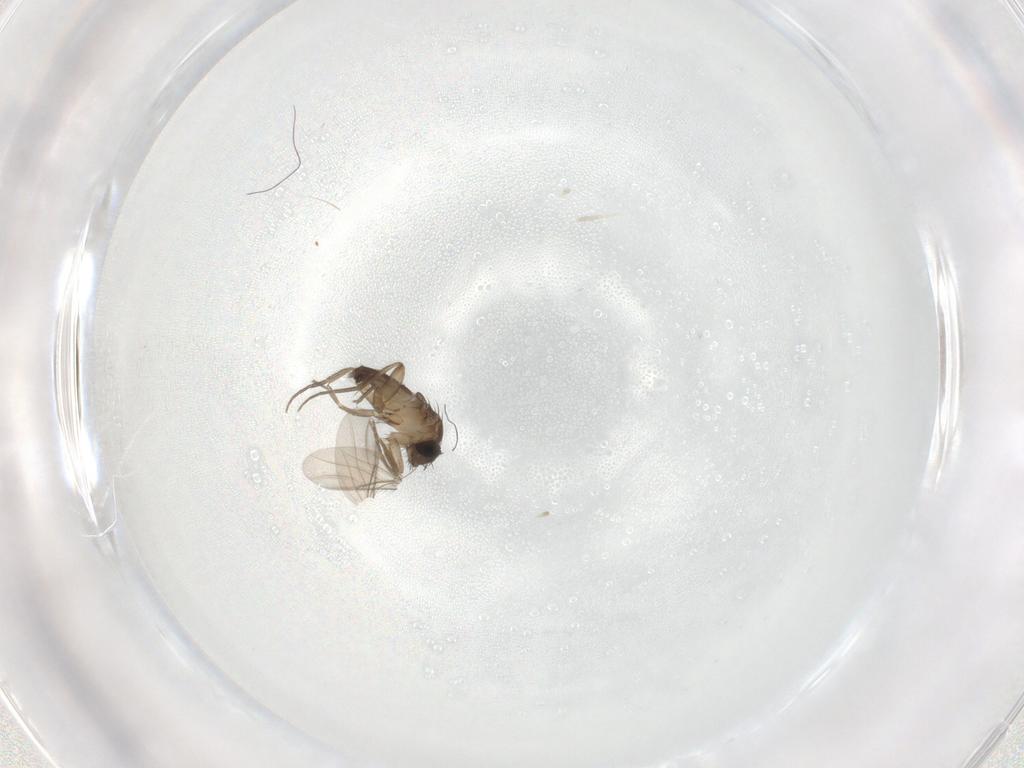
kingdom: Animalia
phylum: Arthropoda
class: Insecta
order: Diptera
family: Phoridae
